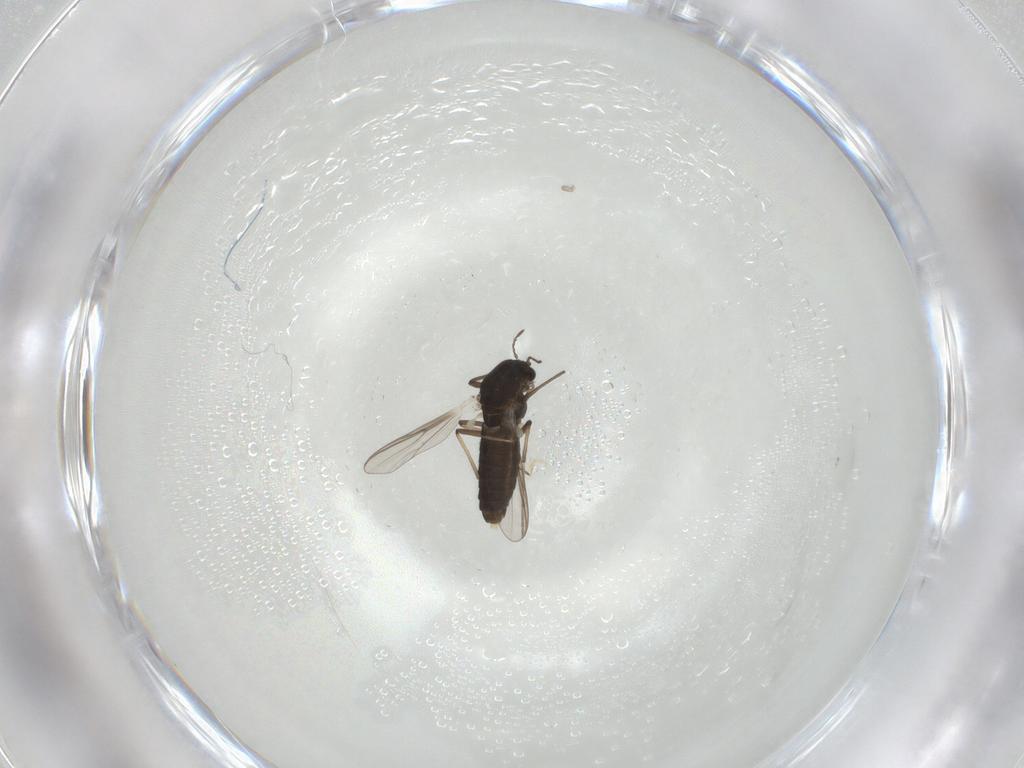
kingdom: Animalia
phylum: Arthropoda
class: Insecta
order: Diptera
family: Chironomidae
